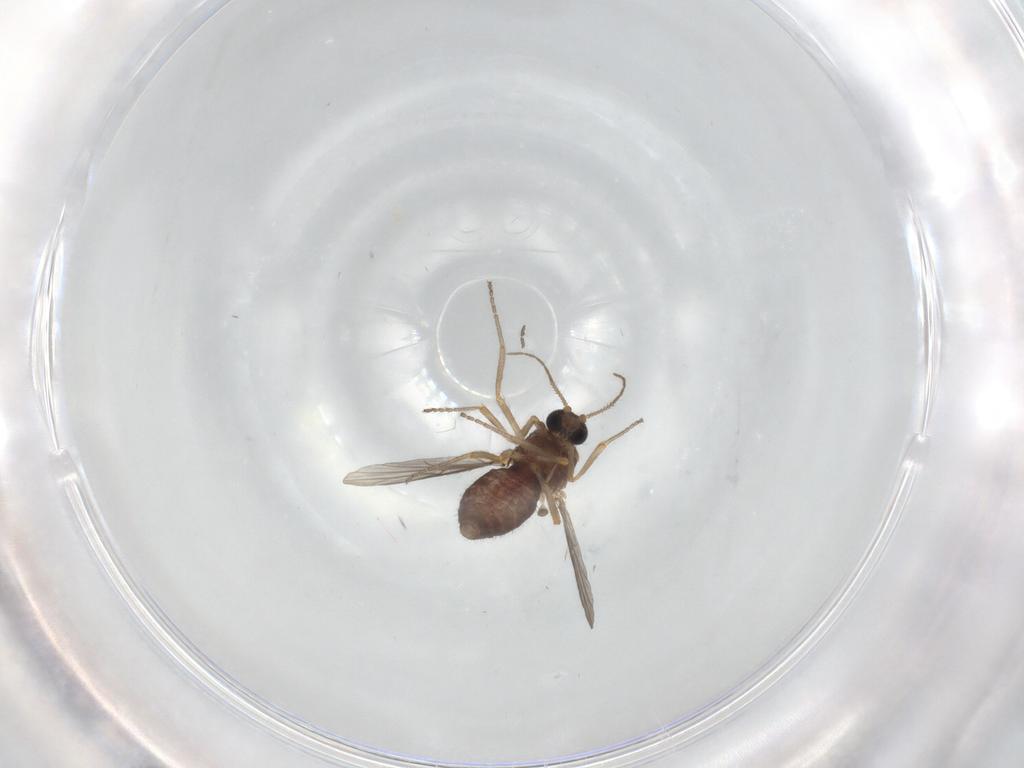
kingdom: Animalia
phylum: Arthropoda
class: Insecta
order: Diptera
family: Ceratopogonidae
